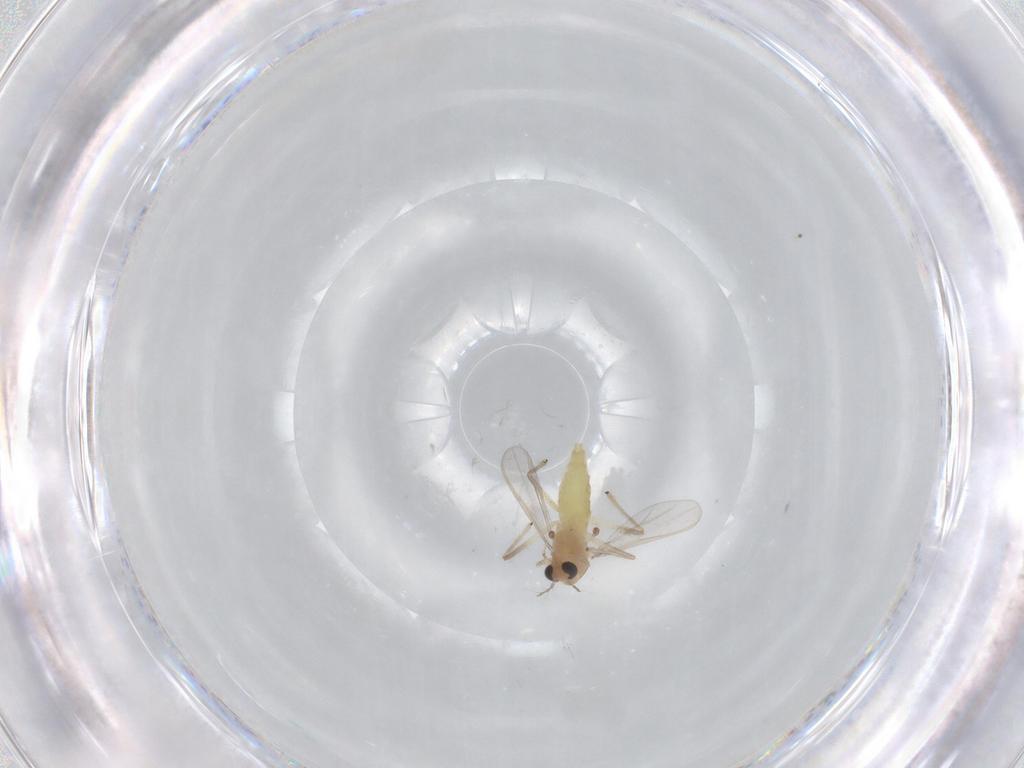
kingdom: Animalia
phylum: Arthropoda
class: Insecta
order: Diptera
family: Chironomidae
